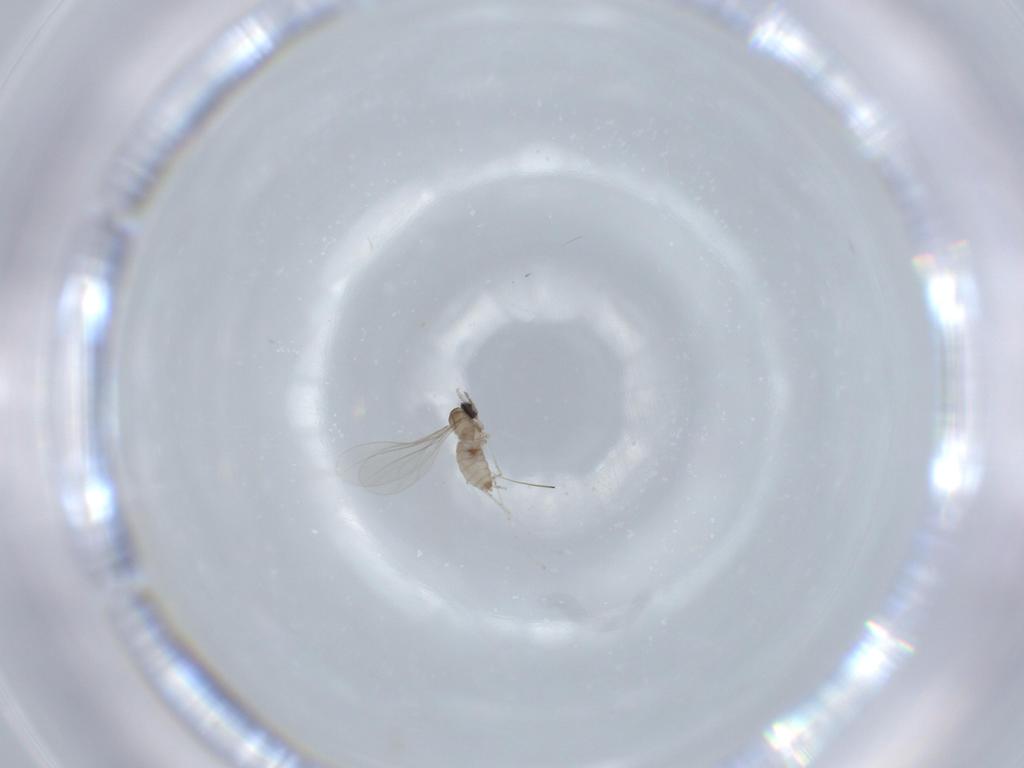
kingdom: Animalia
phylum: Arthropoda
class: Insecta
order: Diptera
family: Cecidomyiidae
